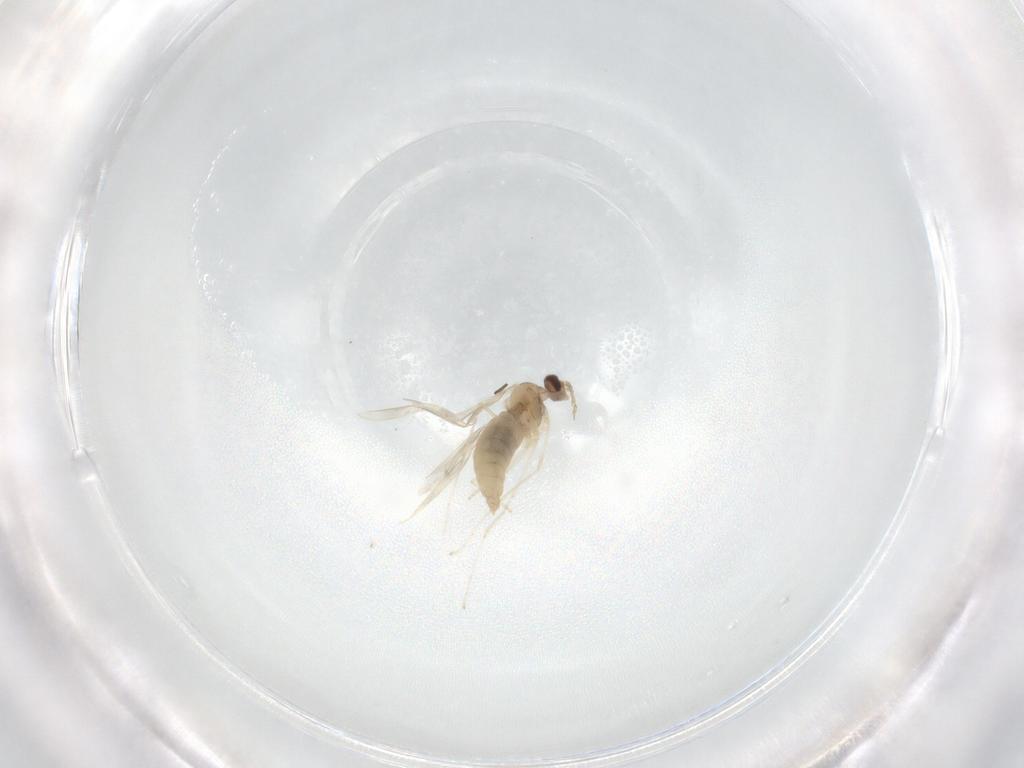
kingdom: Animalia
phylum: Arthropoda
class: Insecta
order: Diptera
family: Cecidomyiidae
